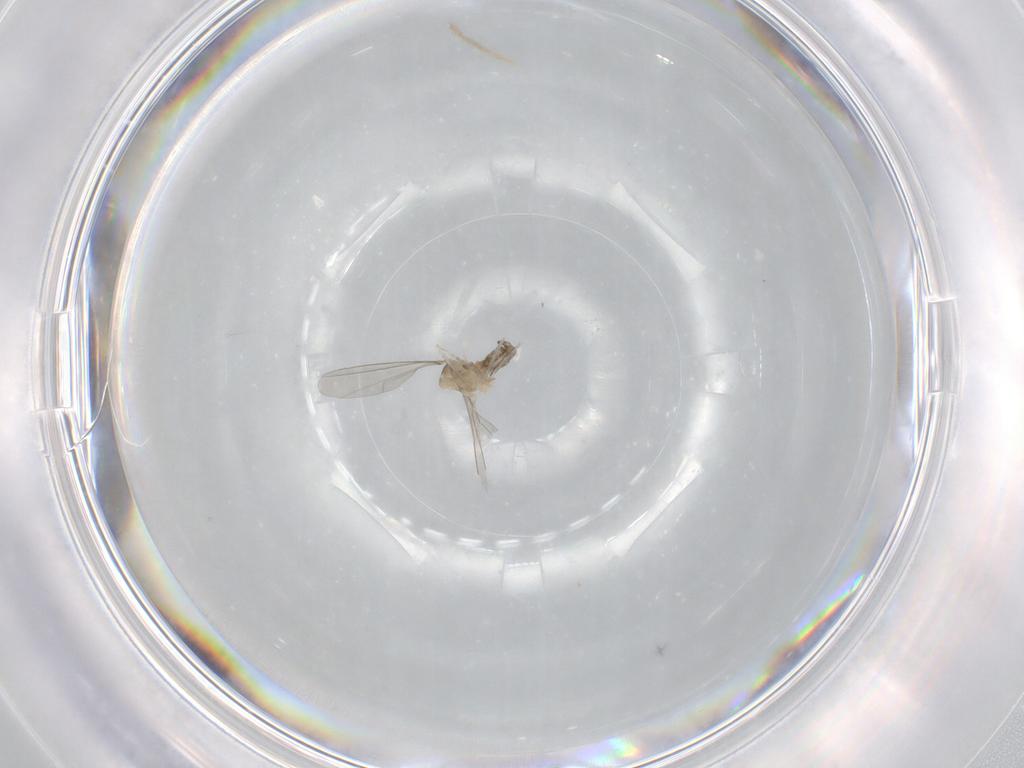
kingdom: Animalia
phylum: Arthropoda
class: Insecta
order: Diptera
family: Cecidomyiidae
